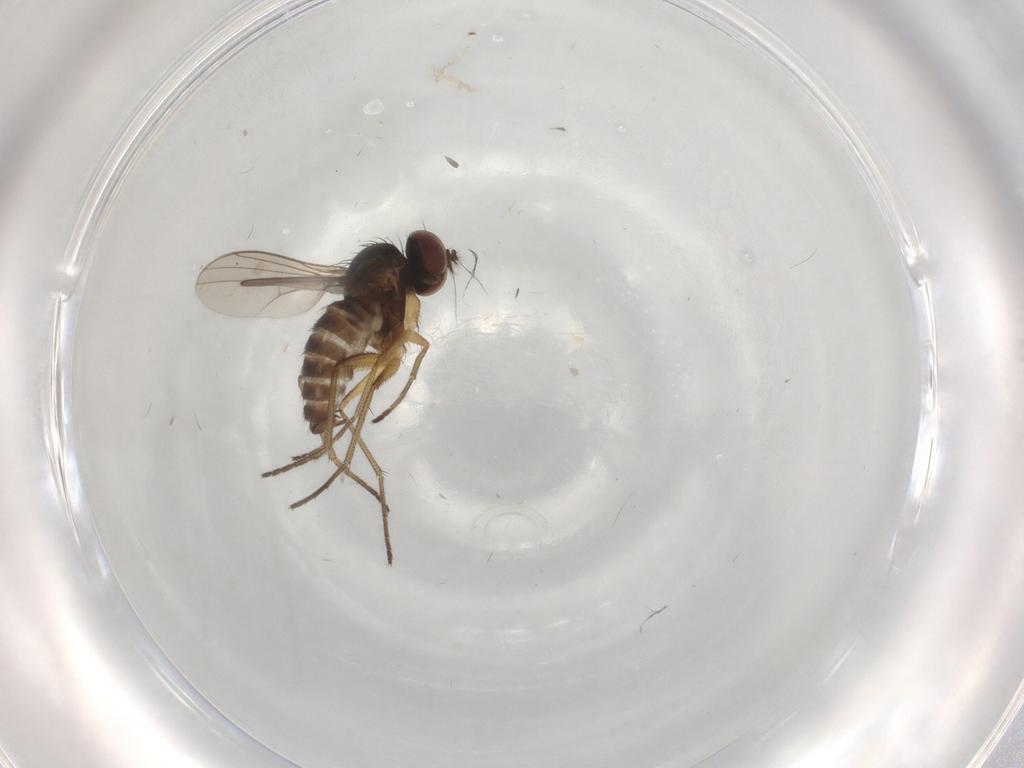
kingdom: Animalia
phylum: Arthropoda
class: Insecta
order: Diptera
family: Dolichopodidae
